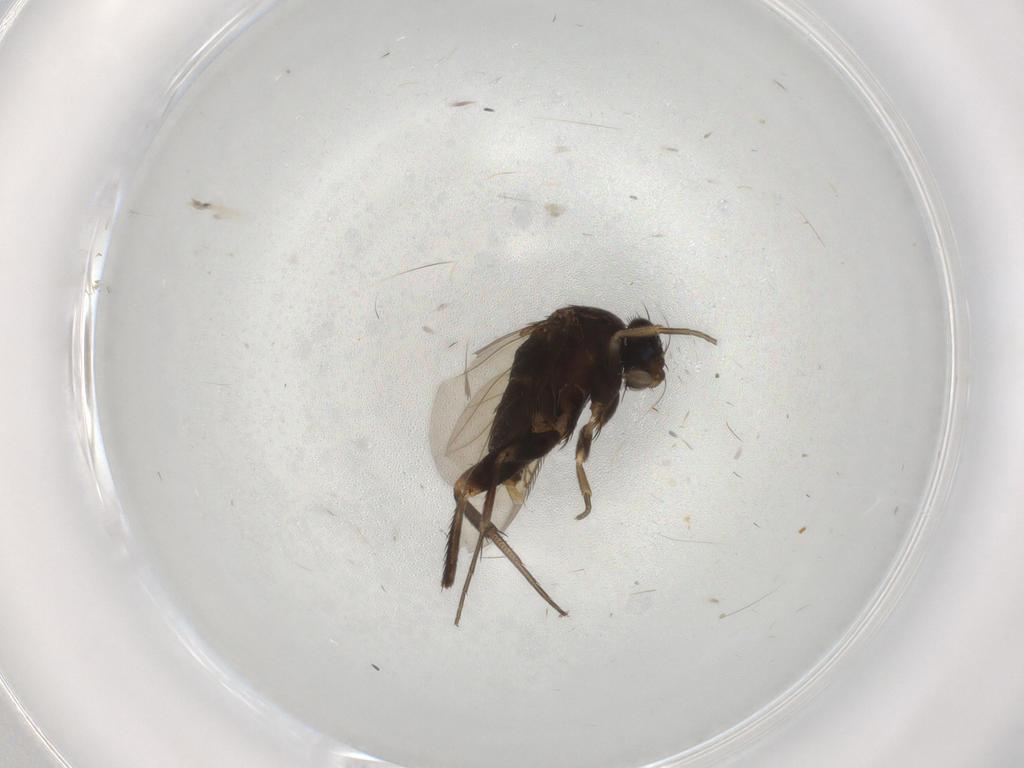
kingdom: Animalia
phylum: Arthropoda
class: Insecta
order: Diptera
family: Phoridae
